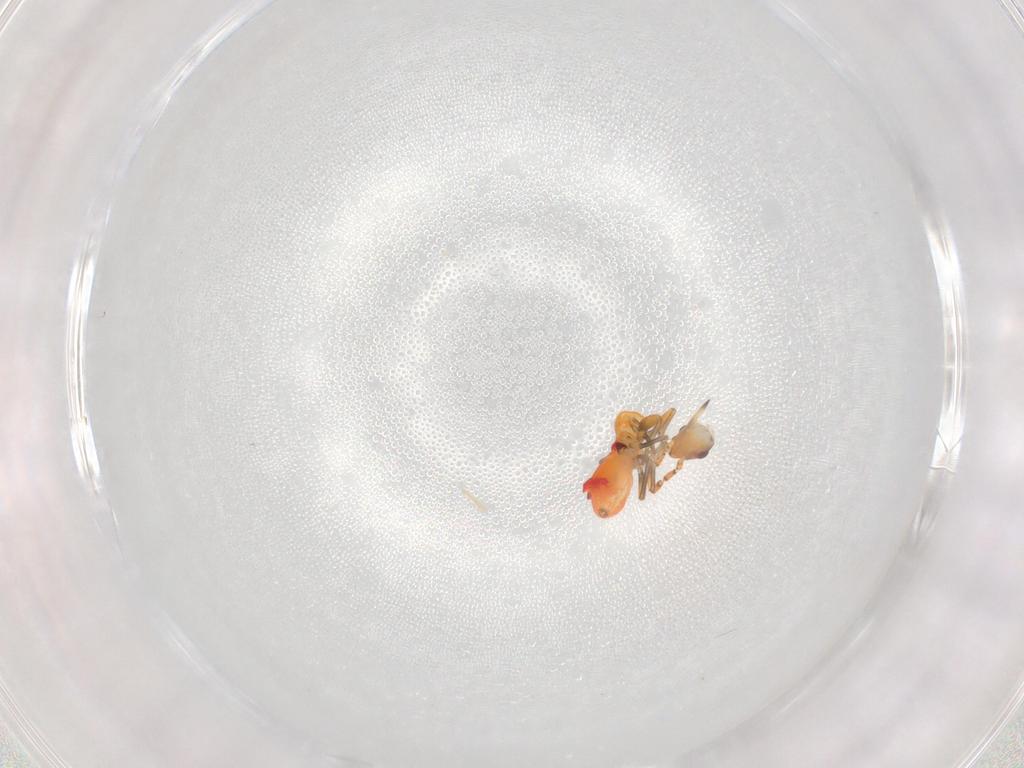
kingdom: Animalia
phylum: Arthropoda
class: Insecta
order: Hemiptera
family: Rhyparochromidae
